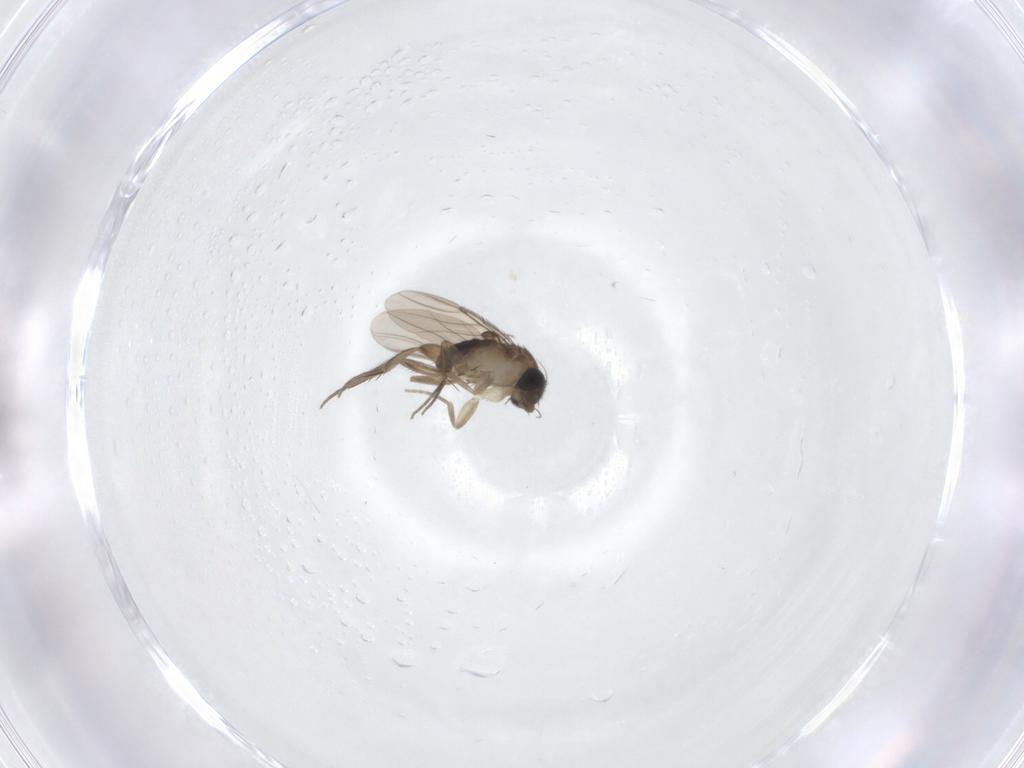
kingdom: Animalia
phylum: Arthropoda
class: Insecta
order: Diptera
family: Phoridae
